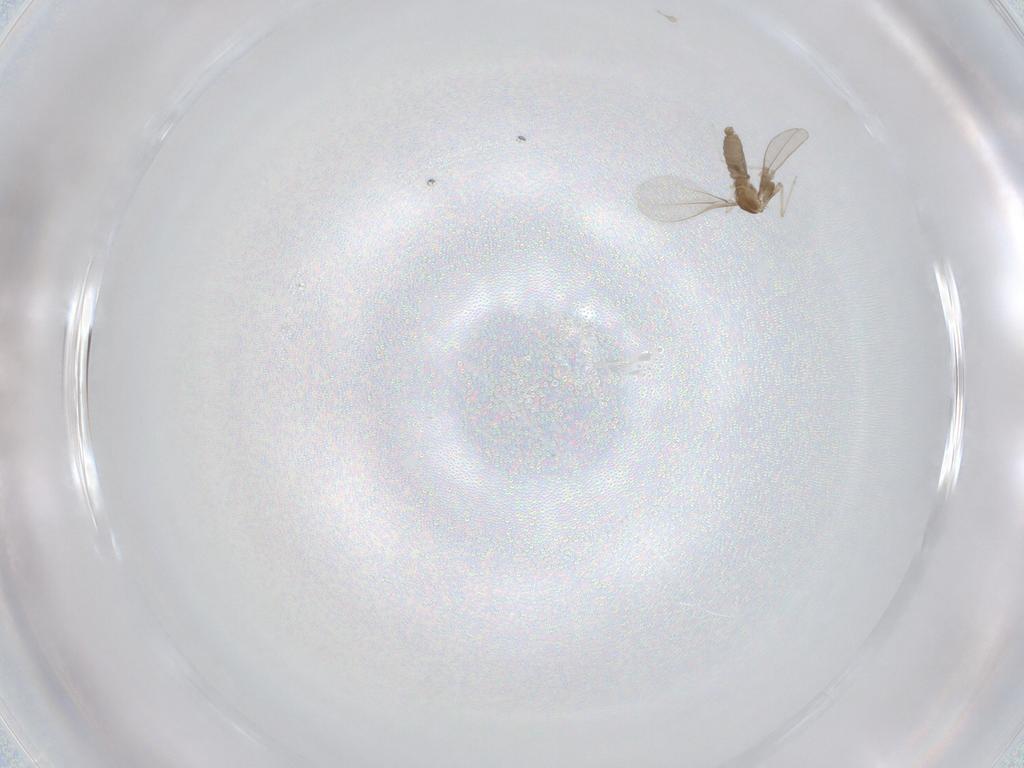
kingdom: Animalia
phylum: Arthropoda
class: Insecta
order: Diptera
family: Cecidomyiidae
